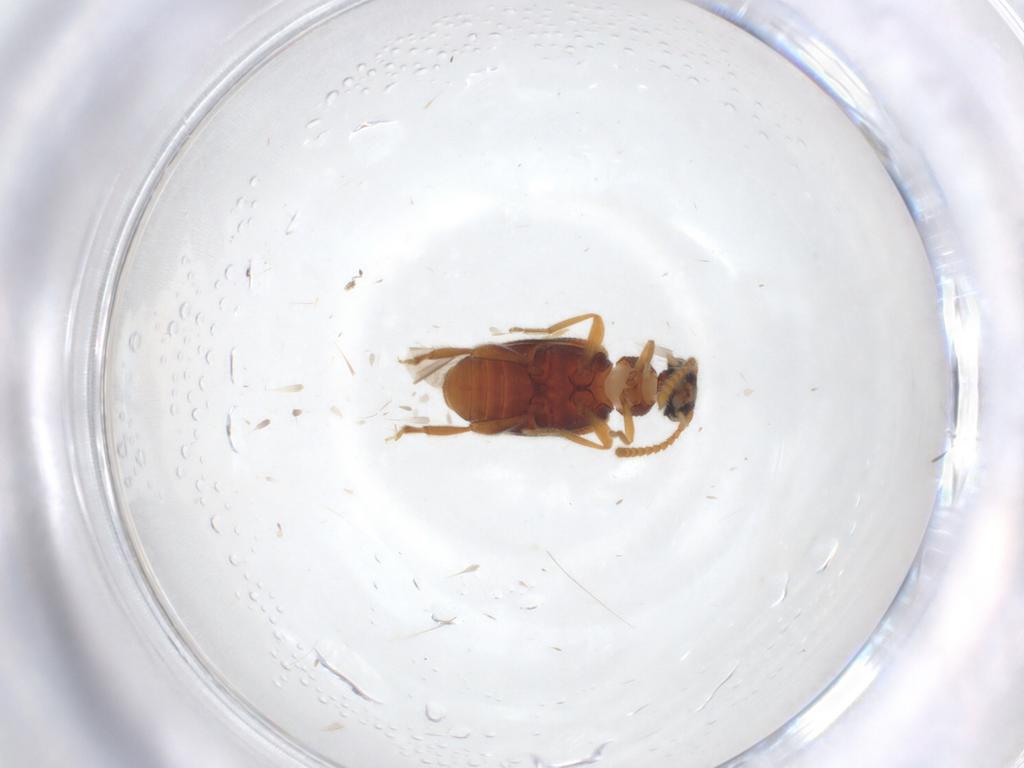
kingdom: Animalia
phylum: Arthropoda
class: Insecta
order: Coleoptera
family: Aderidae
